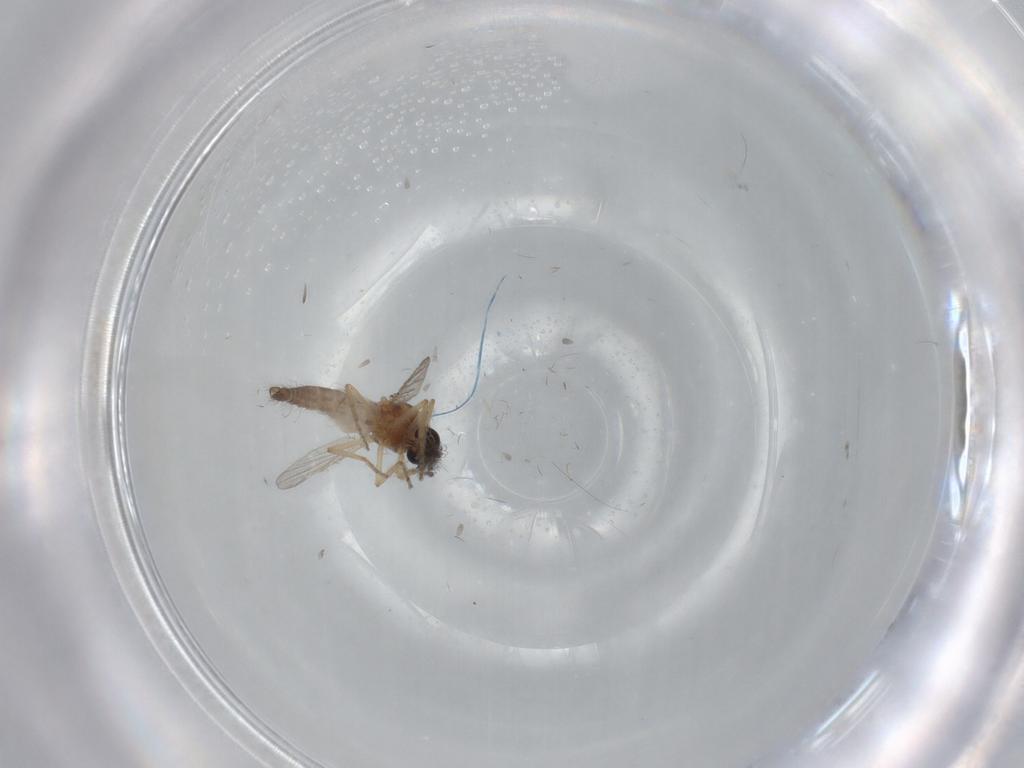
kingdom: Animalia
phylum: Arthropoda
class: Insecta
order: Diptera
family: Ceratopogonidae
